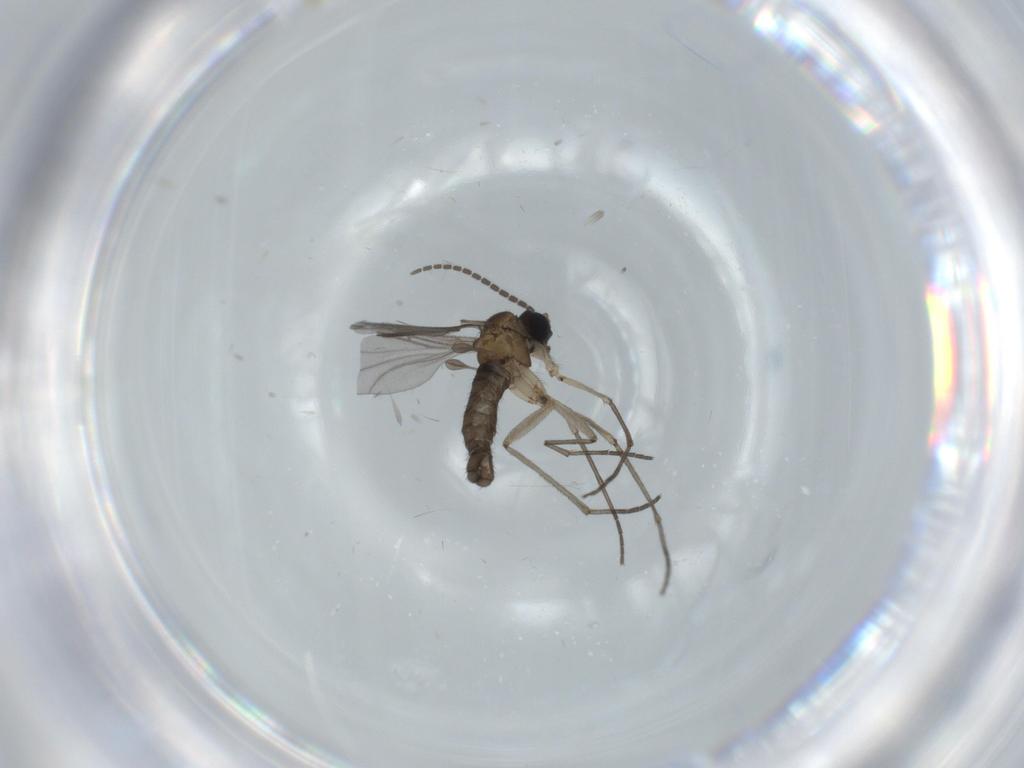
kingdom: Animalia
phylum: Arthropoda
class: Insecta
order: Diptera
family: Sciaridae
